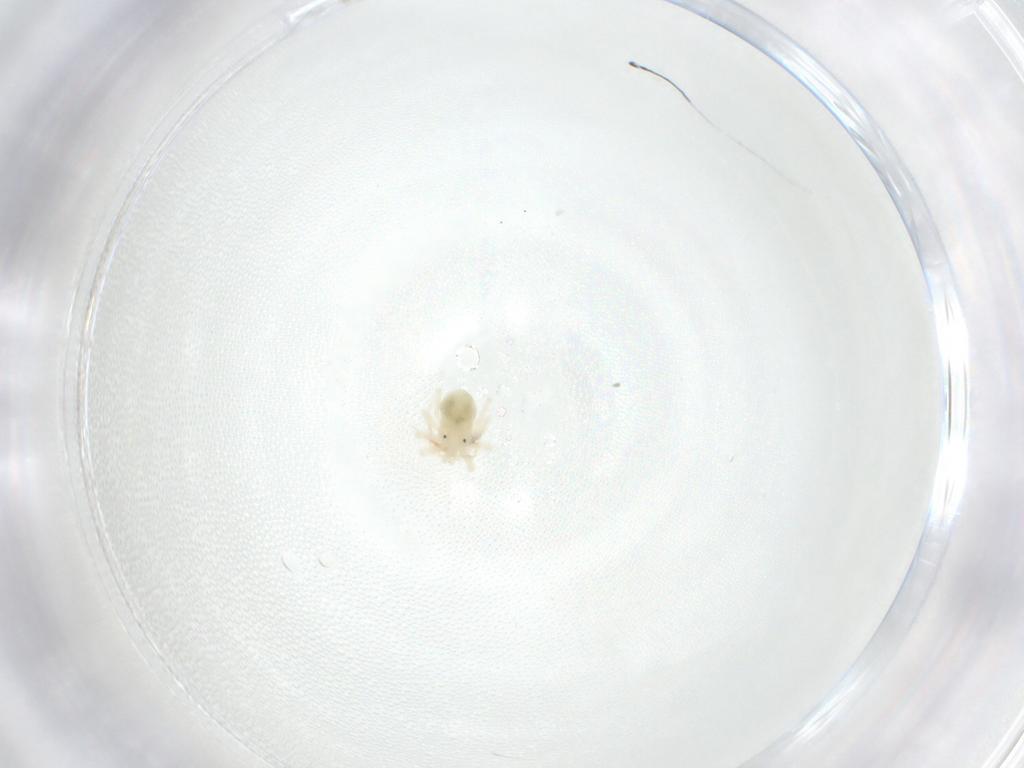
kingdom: Animalia
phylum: Arthropoda
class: Arachnida
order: Trombidiformes
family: Anystidae
